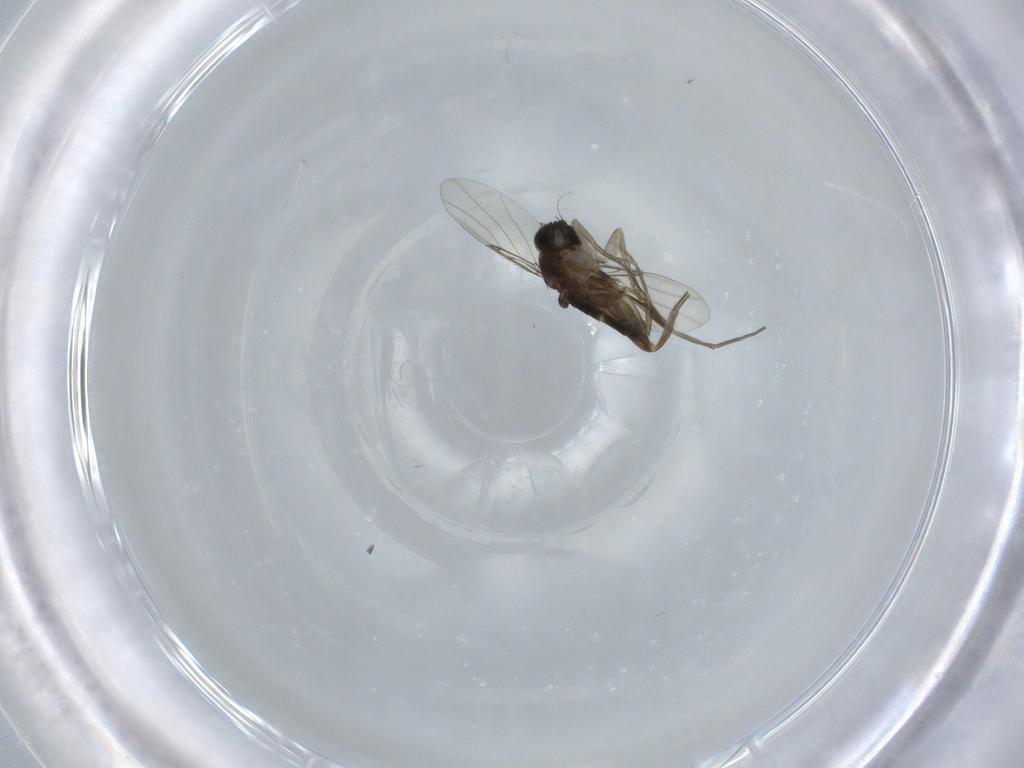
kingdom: Animalia
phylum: Arthropoda
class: Insecta
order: Diptera
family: Phoridae
